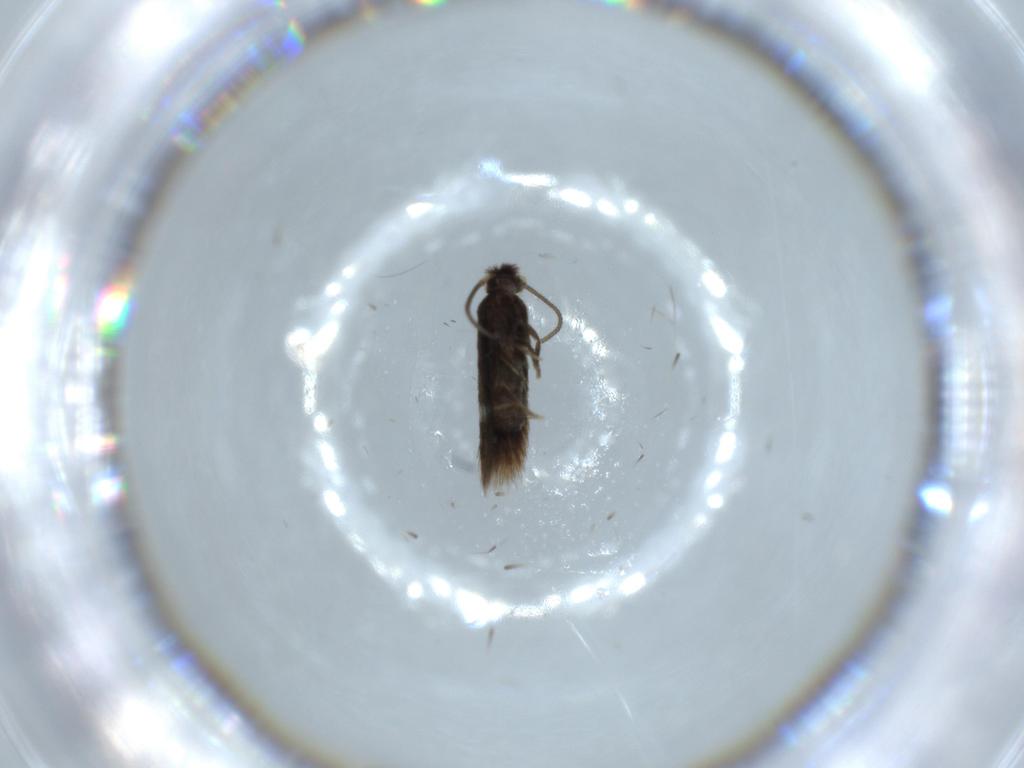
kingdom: Animalia
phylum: Arthropoda
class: Insecta
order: Lepidoptera
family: Nepticulidae
